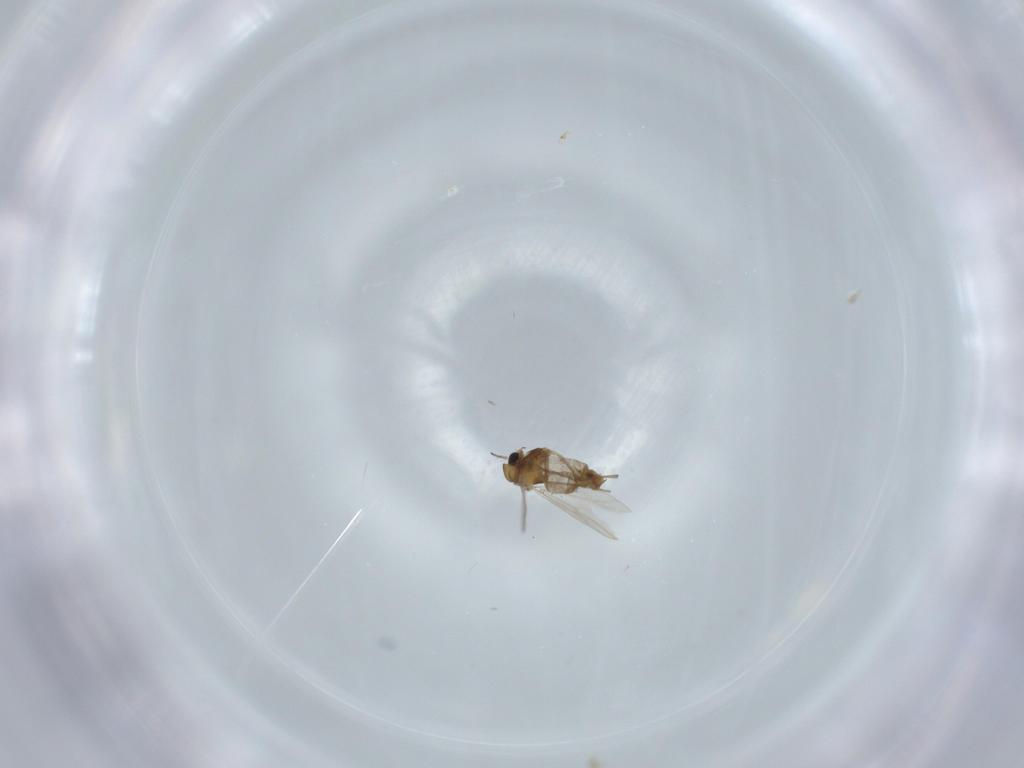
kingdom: Animalia
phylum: Arthropoda
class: Insecta
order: Diptera
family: Chironomidae
